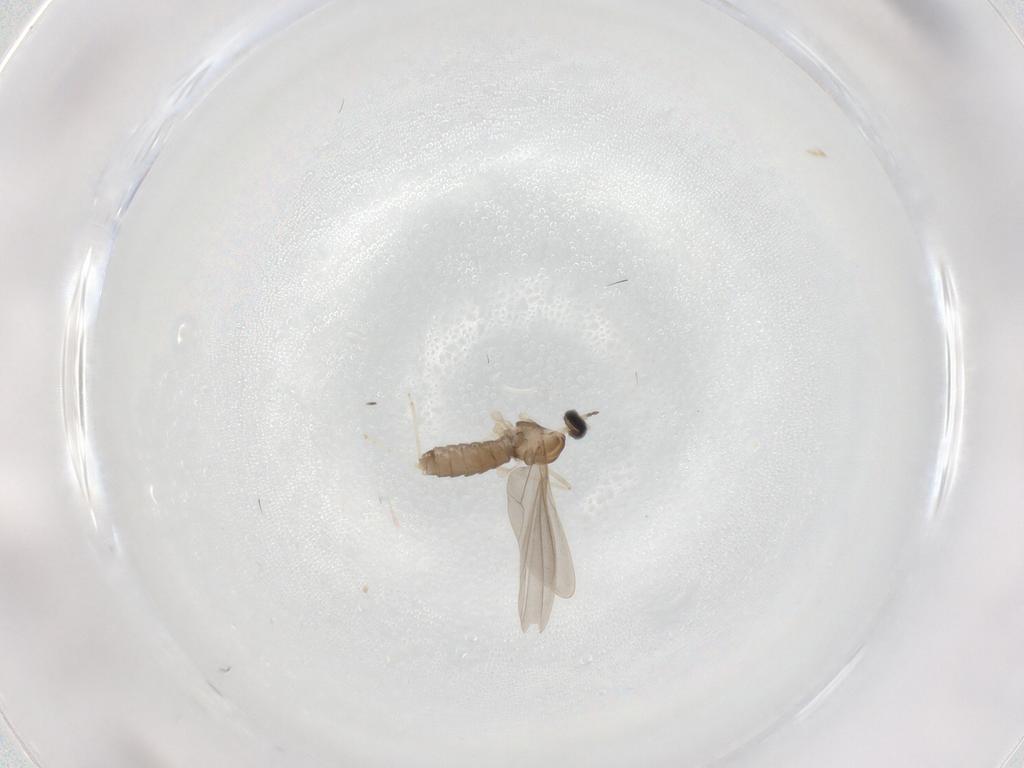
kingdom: Animalia
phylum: Arthropoda
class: Insecta
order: Diptera
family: Cecidomyiidae
